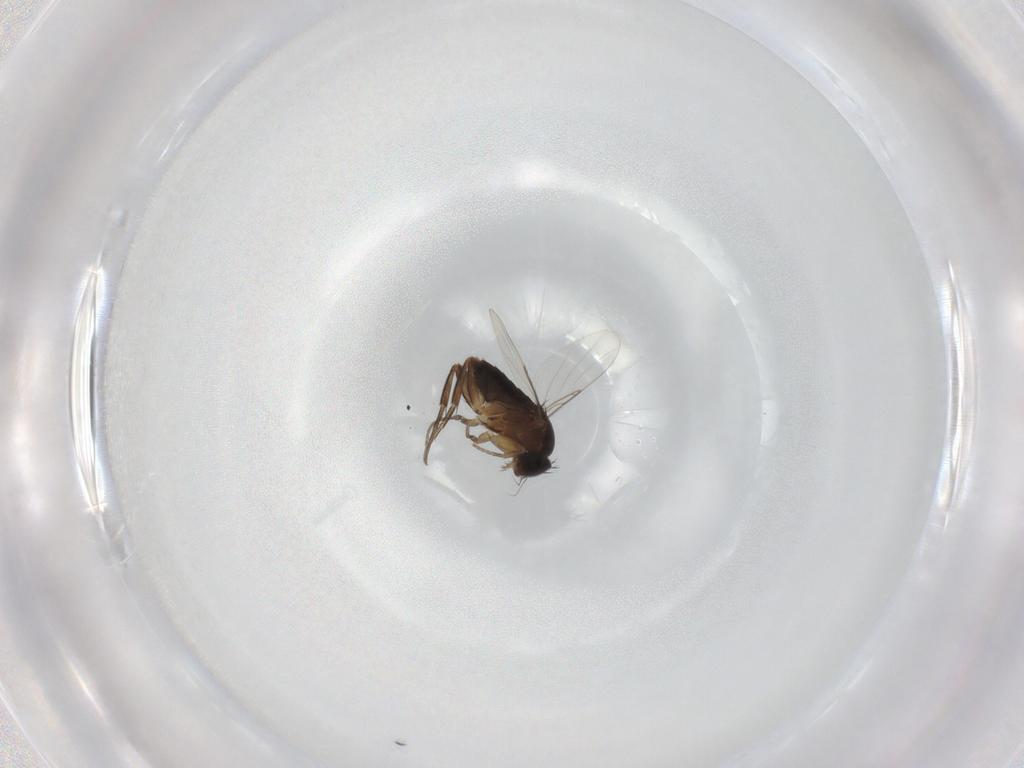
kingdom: Animalia
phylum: Arthropoda
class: Insecta
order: Diptera
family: Phoridae
